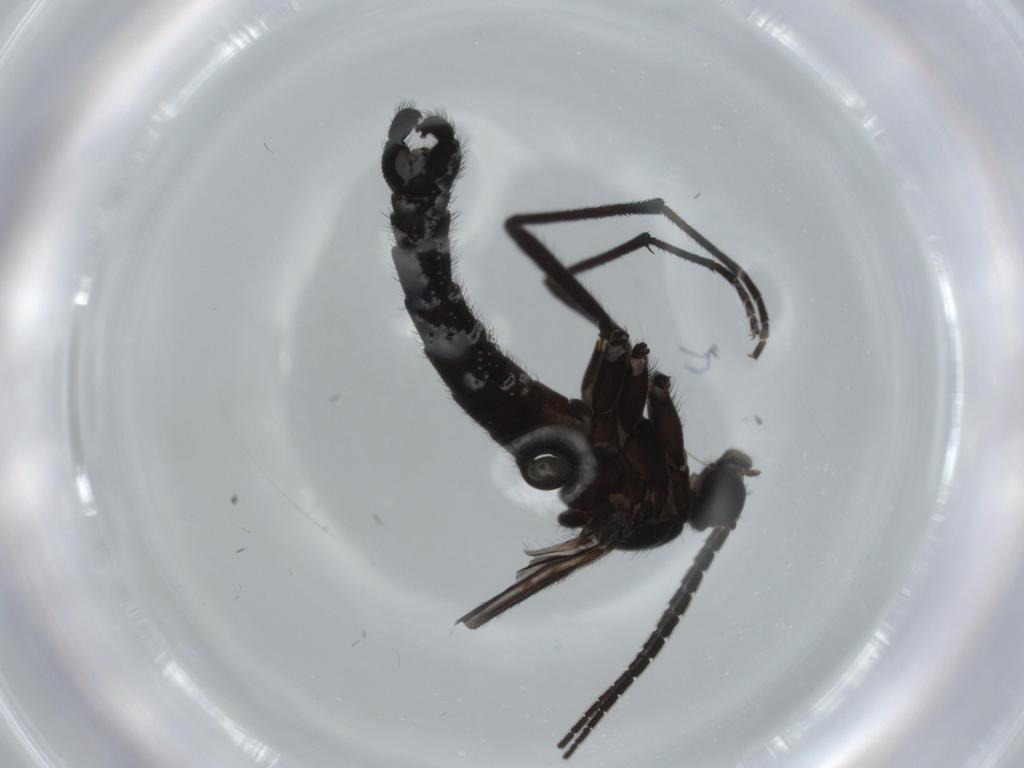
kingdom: Animalia
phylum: Arthropoda
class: Insecta
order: Diptera
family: Sciaridae
